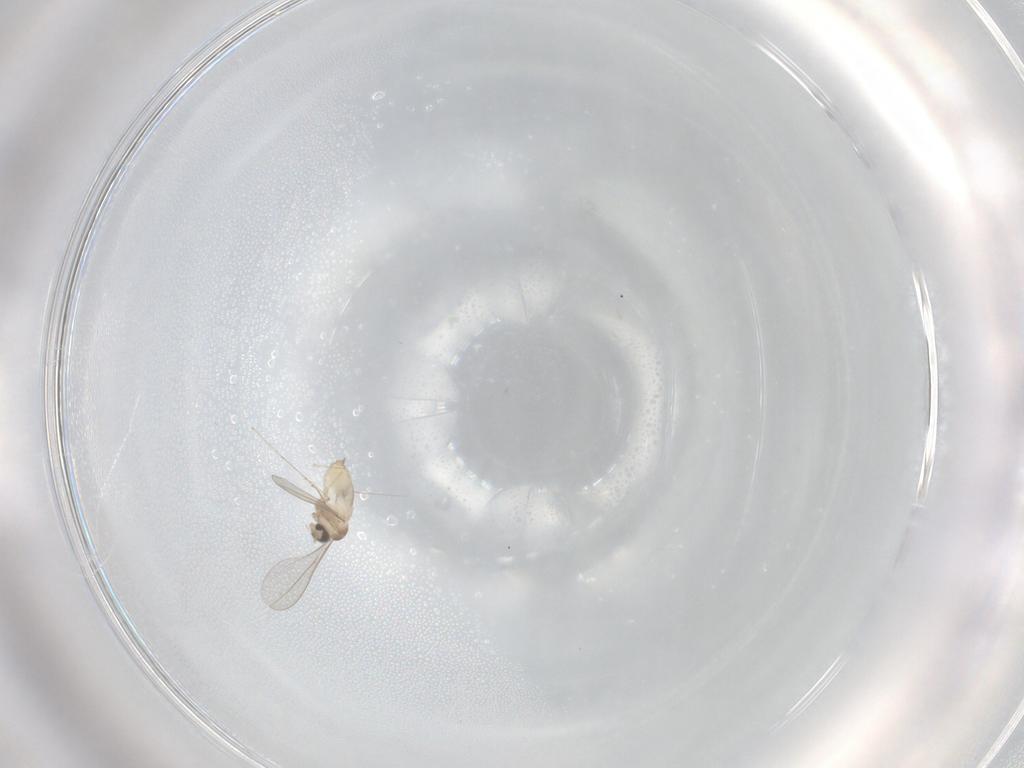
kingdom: Animalia
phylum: Arthropoda
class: Insecta
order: Diptera
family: Cecidomyiidae
